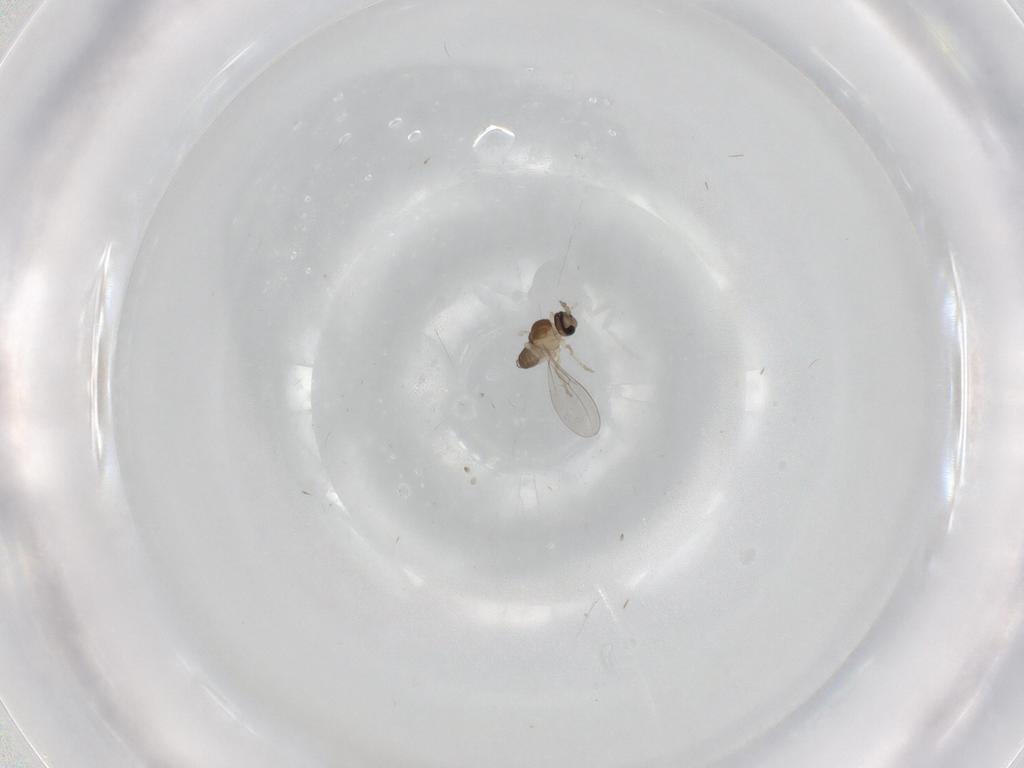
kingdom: Animalia
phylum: Arthropoda
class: Insecta
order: Diptera
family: Cecidomyiidae
